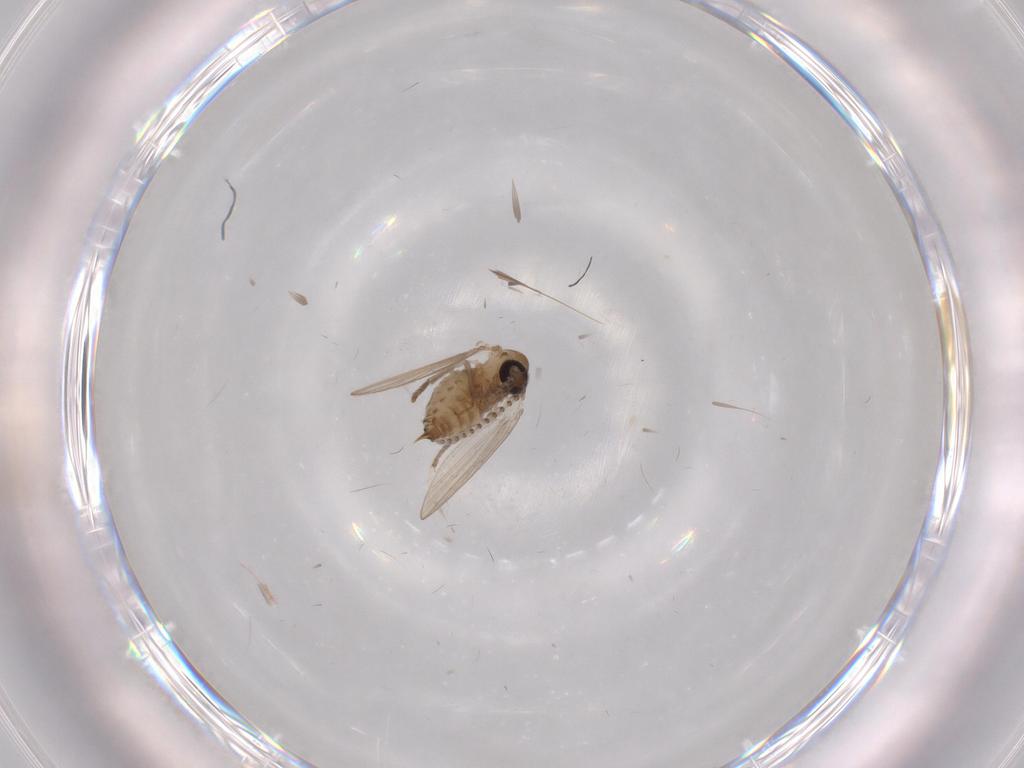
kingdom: Animalia
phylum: Arthropoda
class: Insecta
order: Diptera
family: Psychodidae
